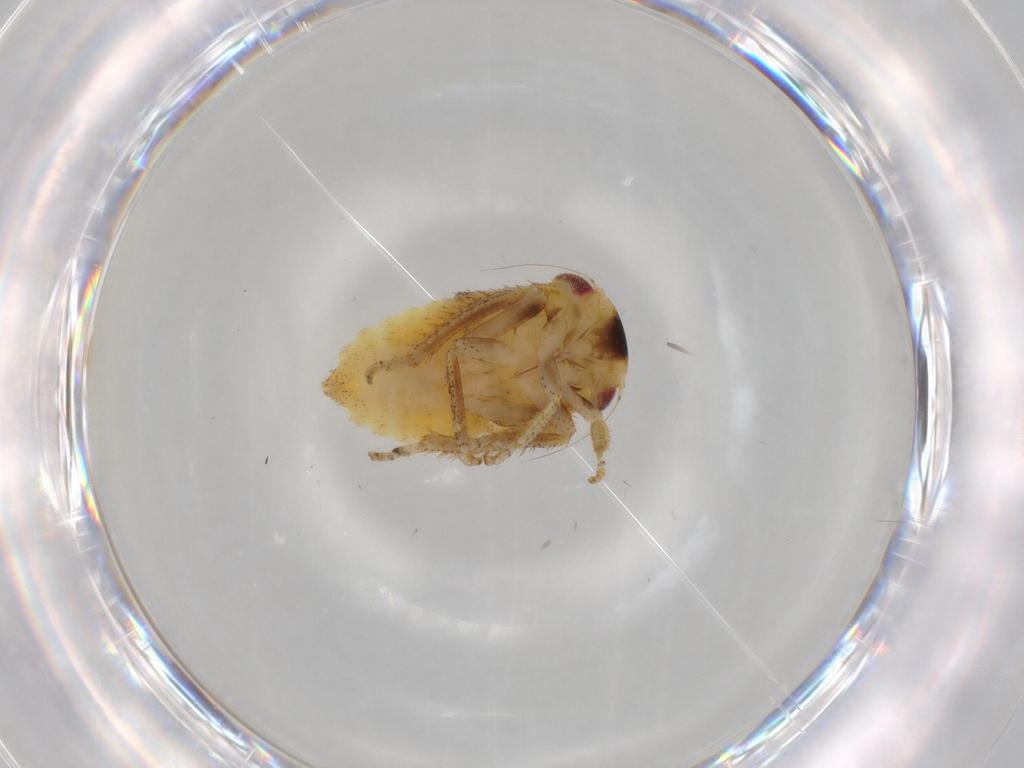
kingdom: Animalia
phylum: Arthropoda
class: Insecta
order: Hemiptera
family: Cicadellidae
